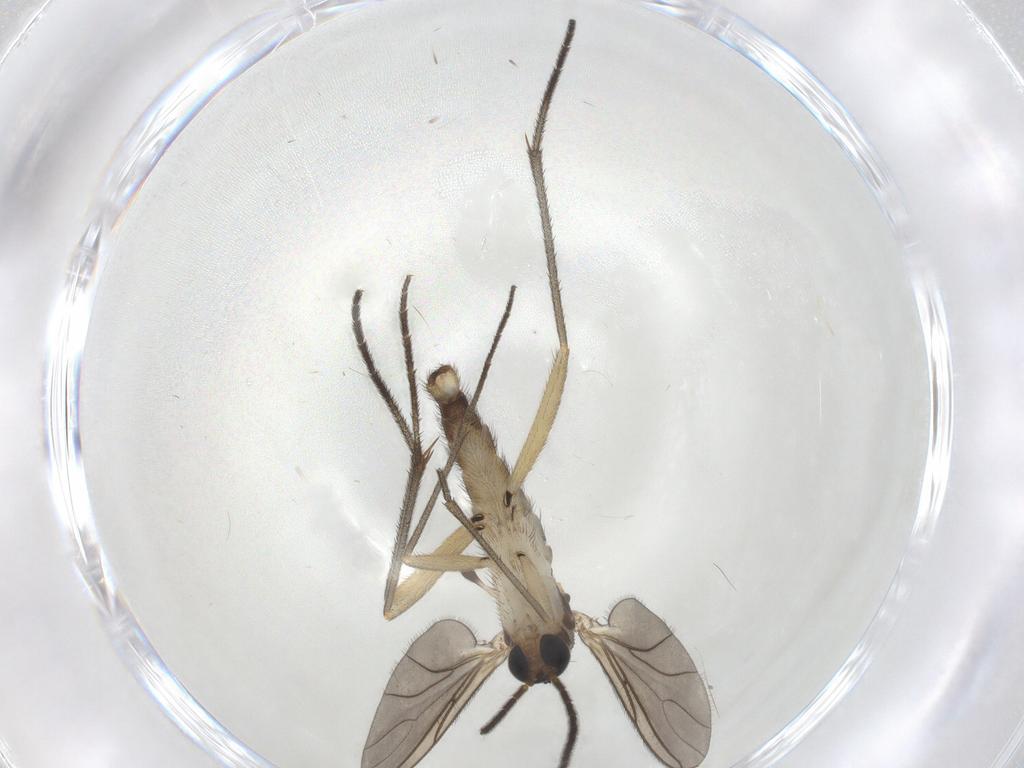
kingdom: Animalia
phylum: Arthropoda
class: Insecta
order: Diptera
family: Sciaridae
